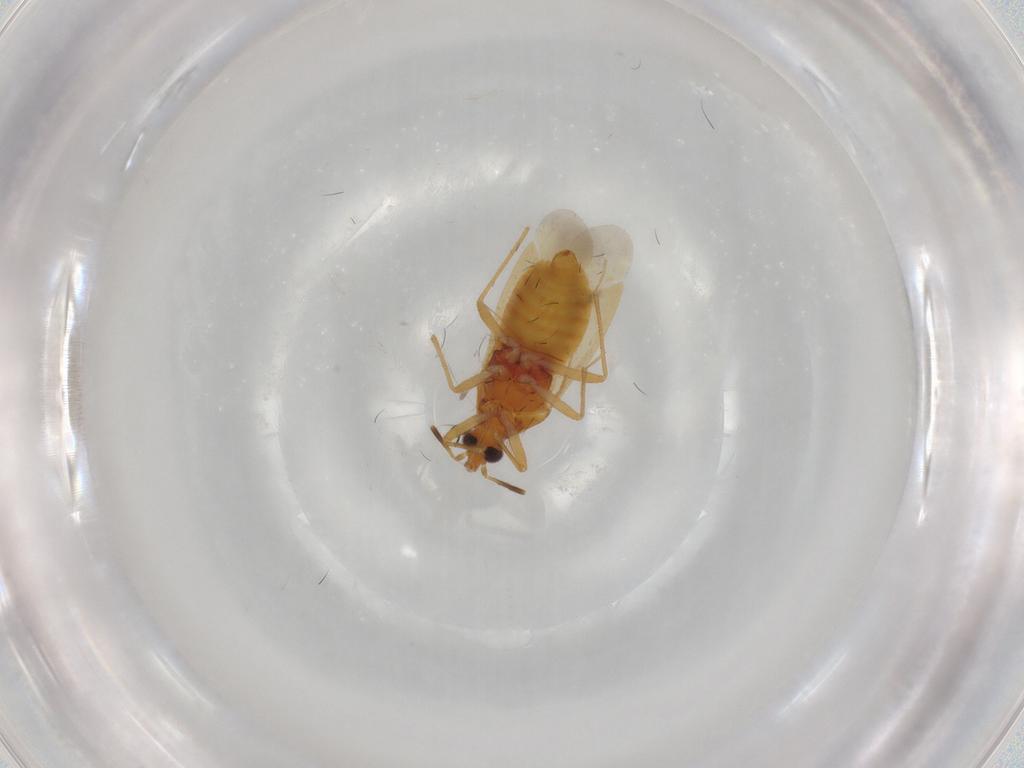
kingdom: Animalia
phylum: Arthropoda
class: Insecta
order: Hemiptera
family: Anthocoridae
